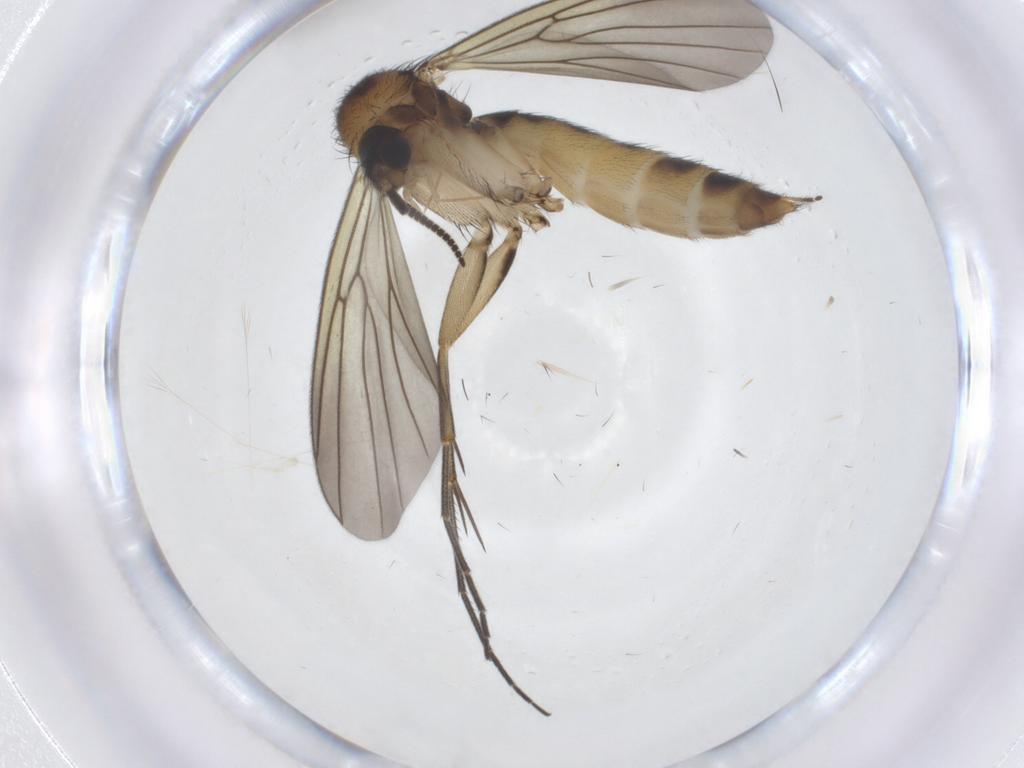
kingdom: Animalia
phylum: Arthropoda
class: Insecta
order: Diptera
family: Mycetophilidae
